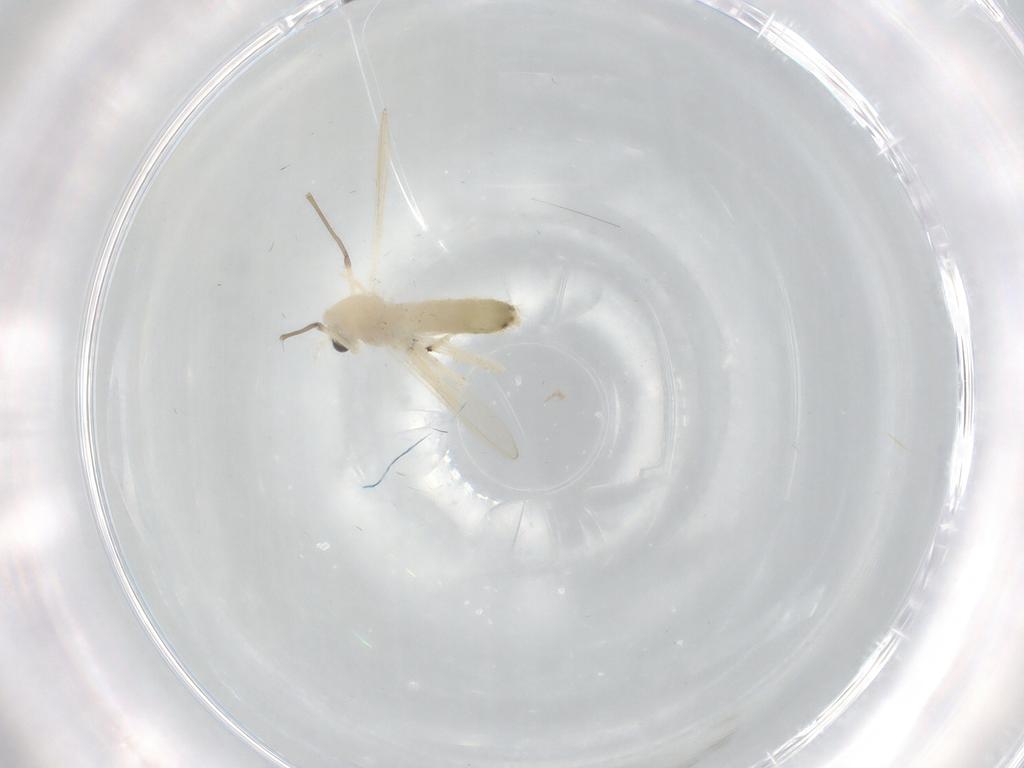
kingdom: Animalia
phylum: Arthropoda
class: Insecta
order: Diptera
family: Chironomidae
